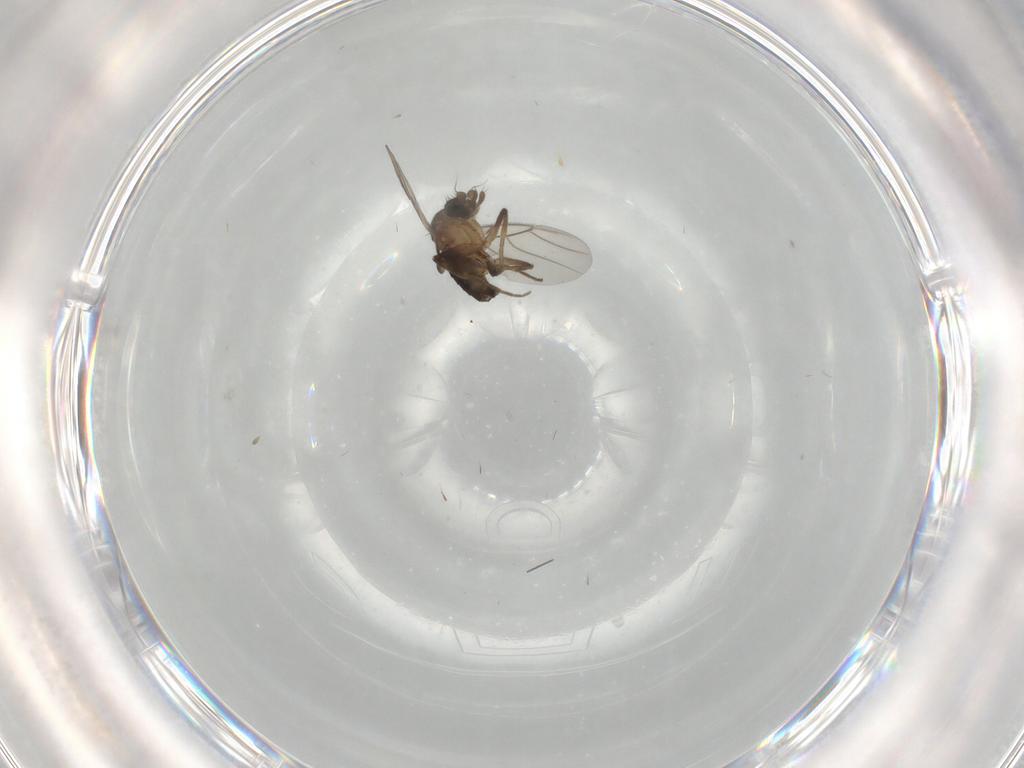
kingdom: Animalia
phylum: Arthropoda
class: Insecta
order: Diptera
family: Phoridae
